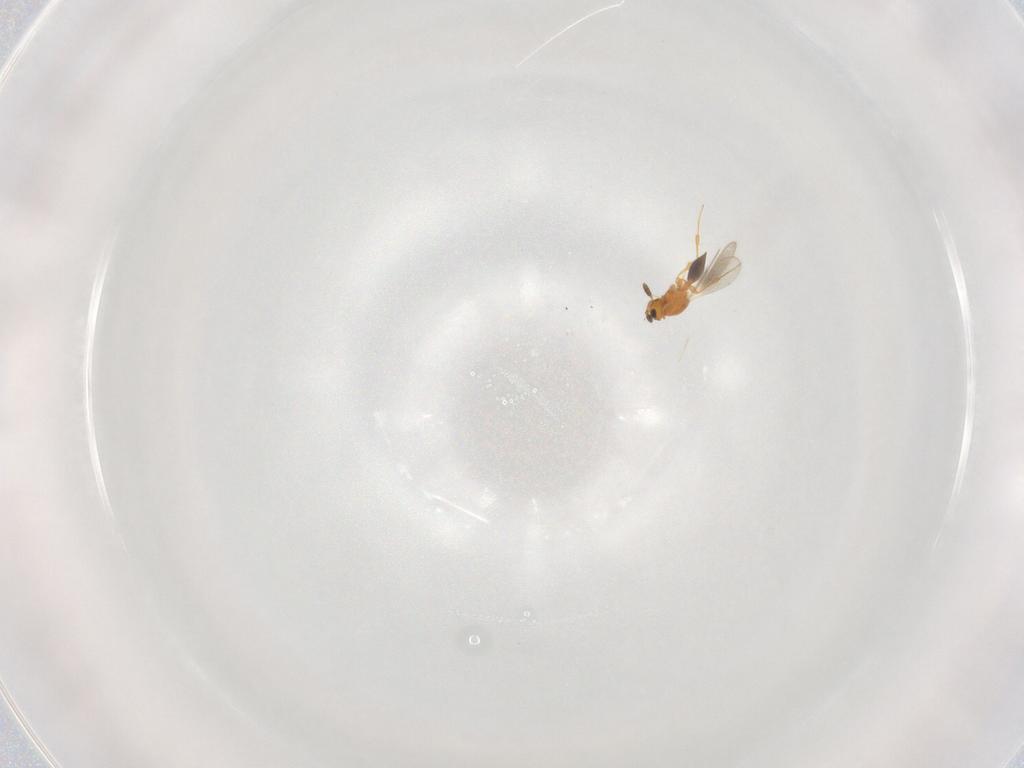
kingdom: Animalia
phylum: Arthropoda
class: Insecta
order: Hymenoptera
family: Platygastridae
